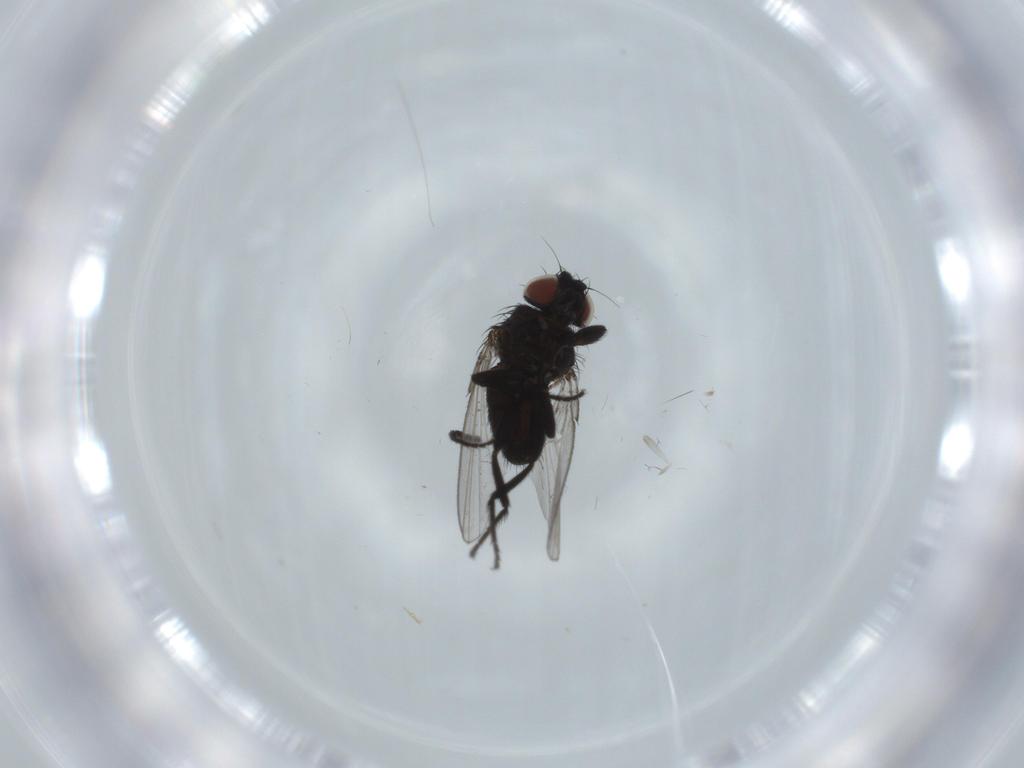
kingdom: Animalia
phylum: Arthropoda
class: Insecta
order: Diptera
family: Milichiidae
